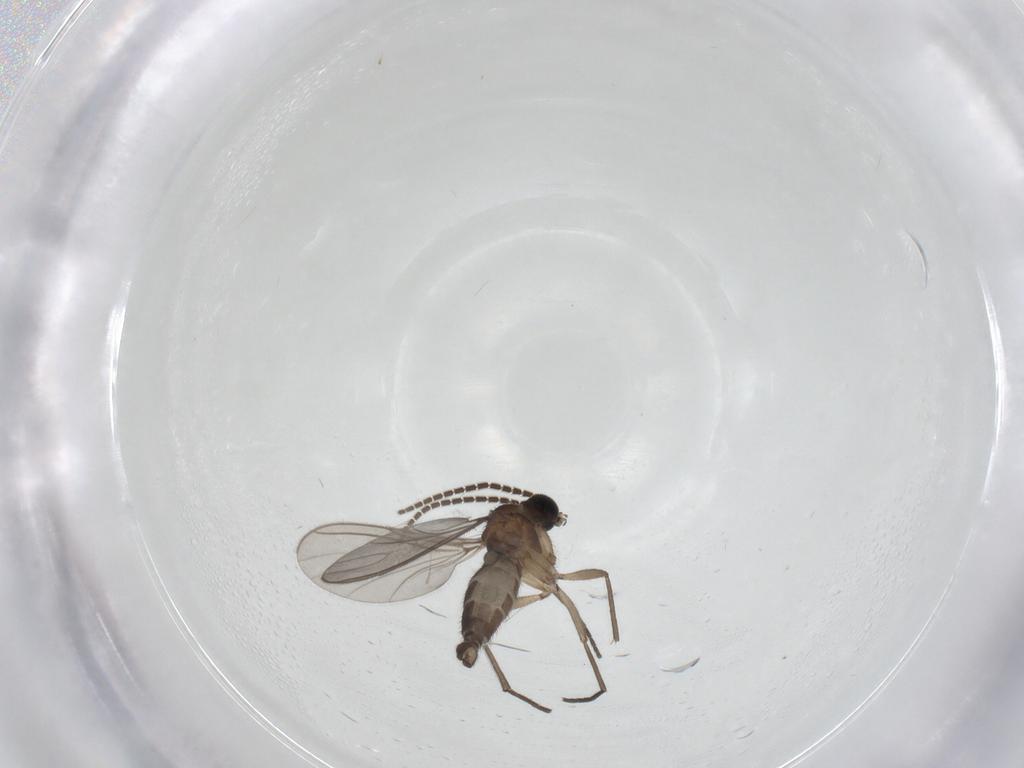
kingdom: Animalia
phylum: Arthropoda
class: Insecta
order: Diptera
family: Sciaridae
